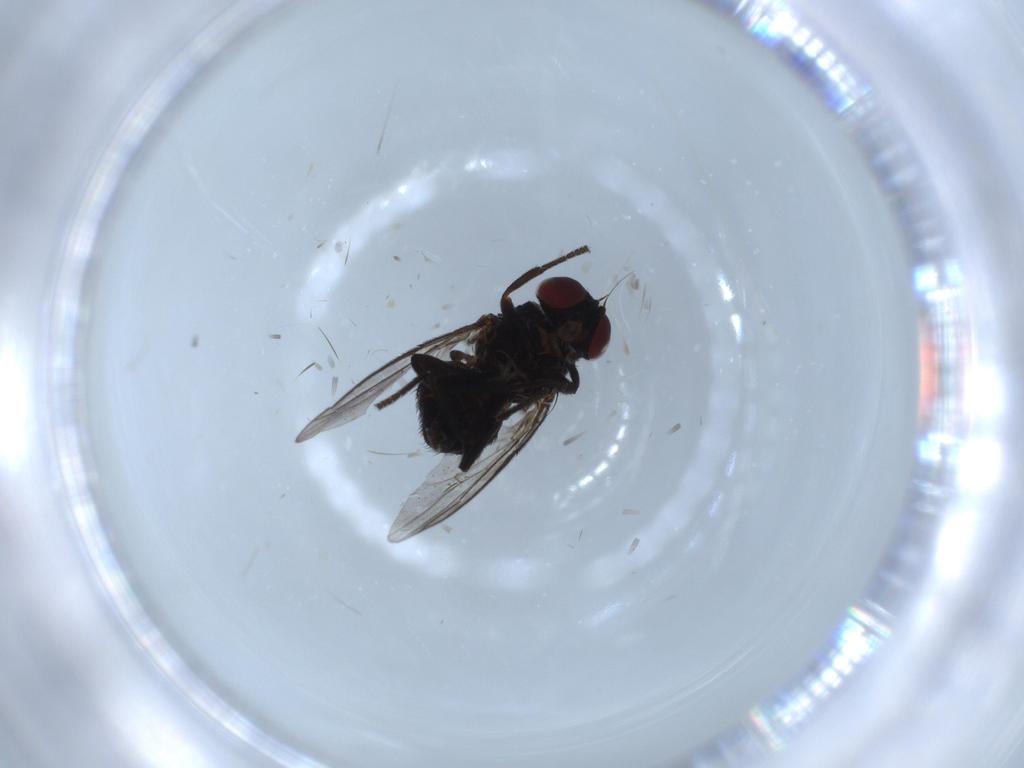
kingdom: Animalia
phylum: Arthropoda
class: Insecta
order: Diptera
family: Agromyzidae
